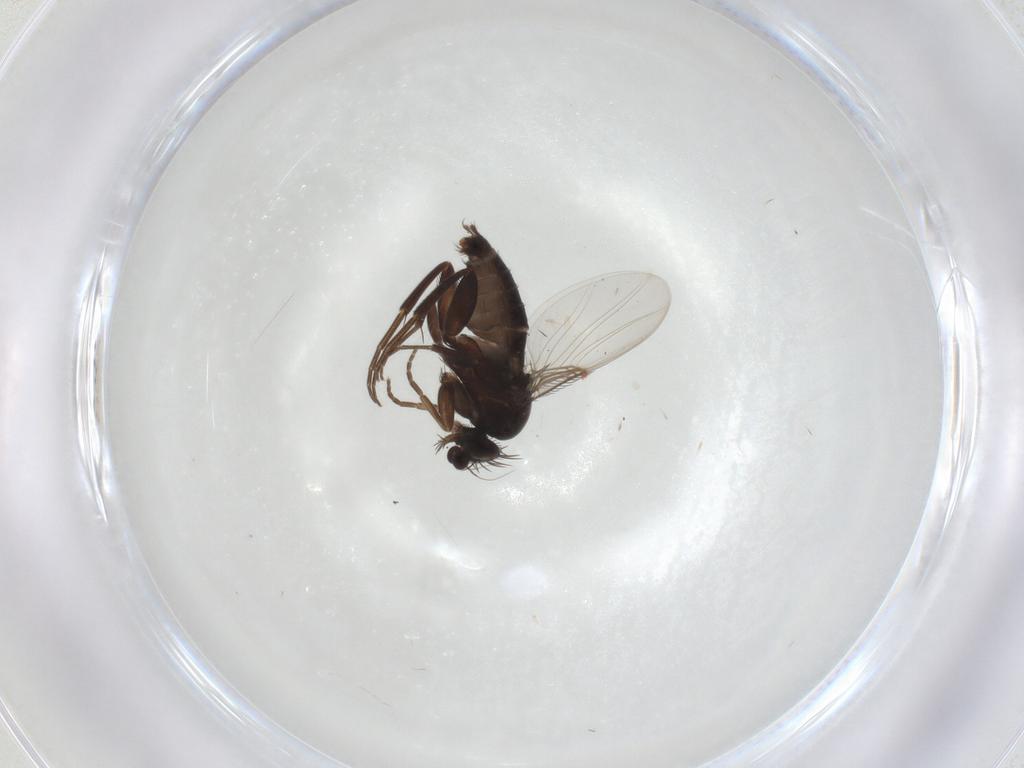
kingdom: Animalia
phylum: Arthropoda
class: Insecta
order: Diptera
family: Phoridae
